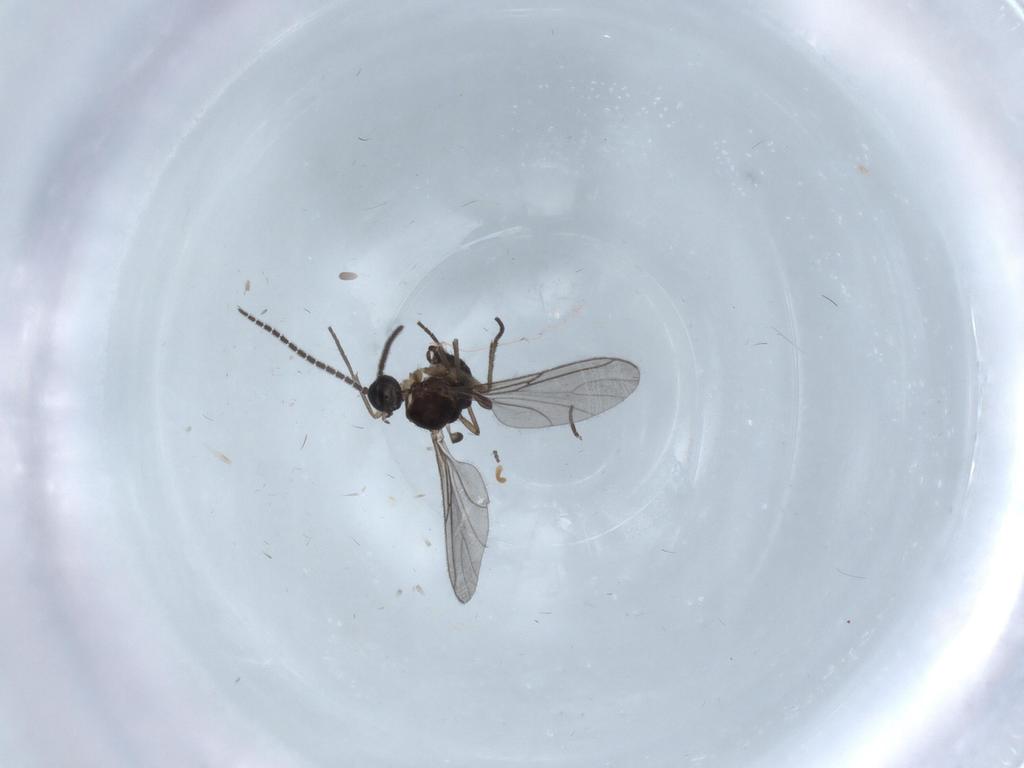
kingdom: Animalia
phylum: Arthropoda
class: Insecta
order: Diptera
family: Sciaridae
